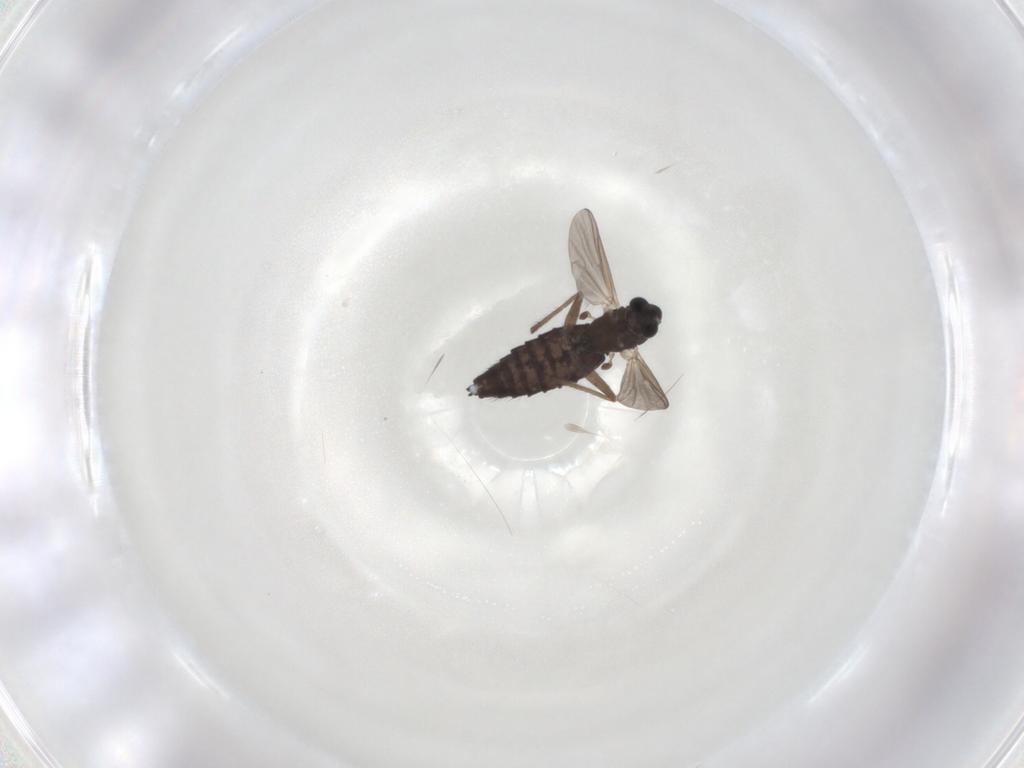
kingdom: Animalia
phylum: Arthropoda
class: Insecta
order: Diptera
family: Chironomidae
